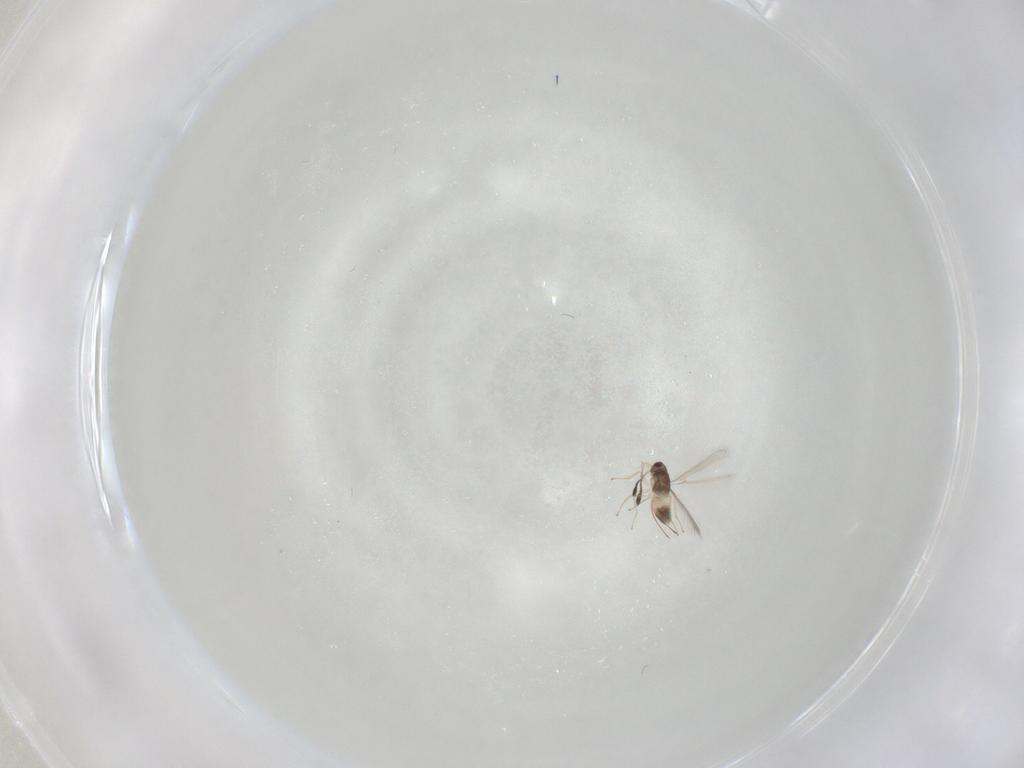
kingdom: Animalia
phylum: Arthropoda
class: Insecta
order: Hymenoptera
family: Mymaridae
